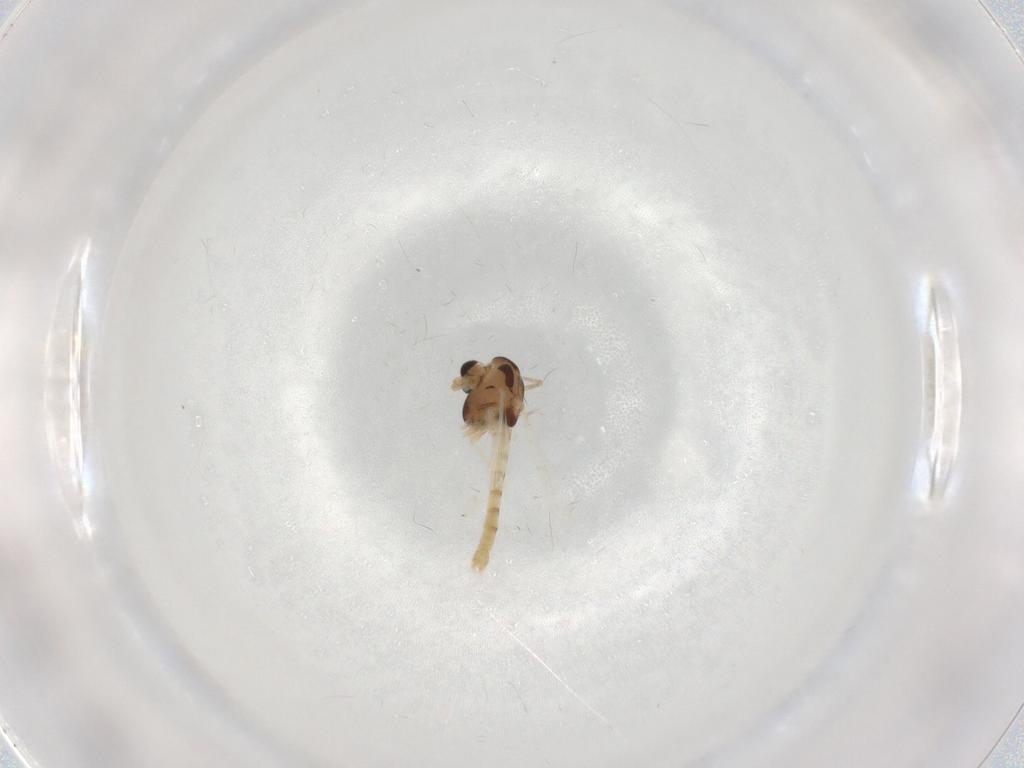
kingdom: Animalia
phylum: Arthropoda
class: Insecta
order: Diptera
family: Chironomidae
